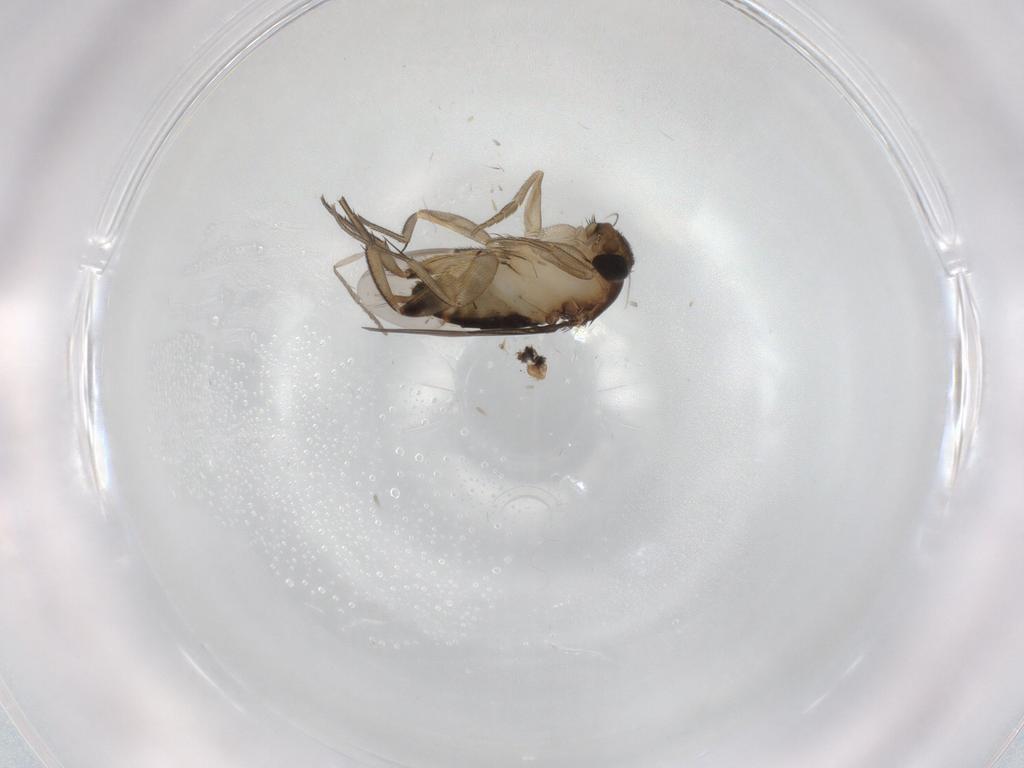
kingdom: Animalia
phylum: Arthropoda
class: Insecta
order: Diptera
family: Cecidomyiidae
